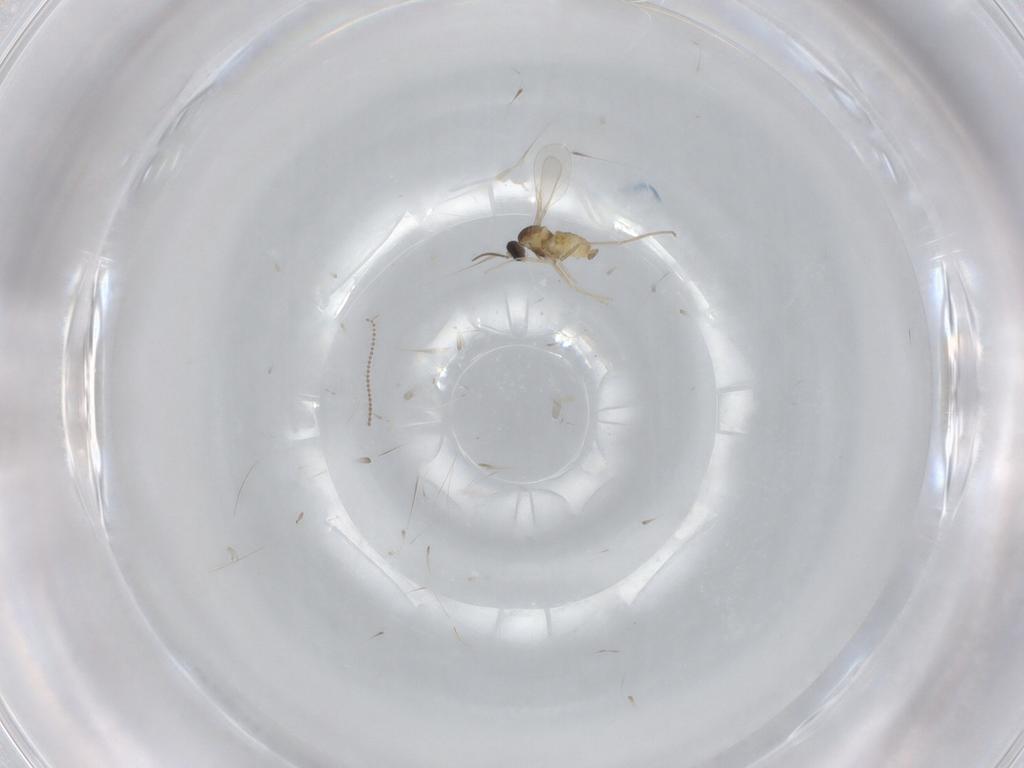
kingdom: Animalia
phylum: Arthropoda
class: Insecta
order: Diptera
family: Cecidomyiidae
